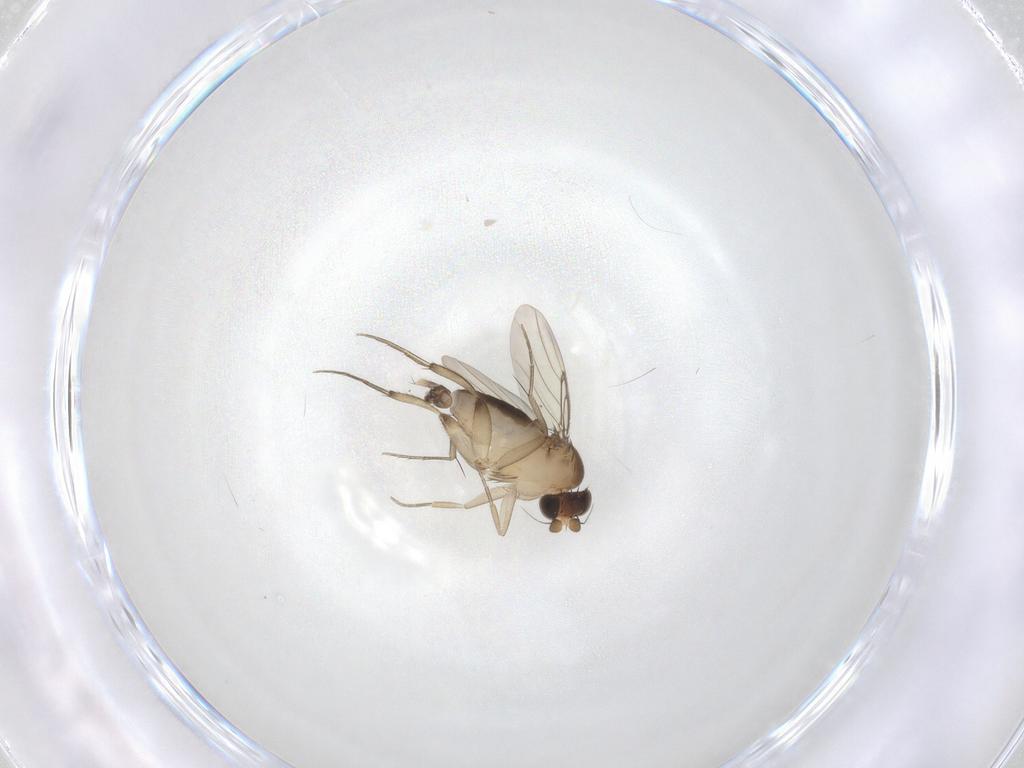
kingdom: Animalia
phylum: Arthropoda
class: Insecta
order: Diptera
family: Phoridae
